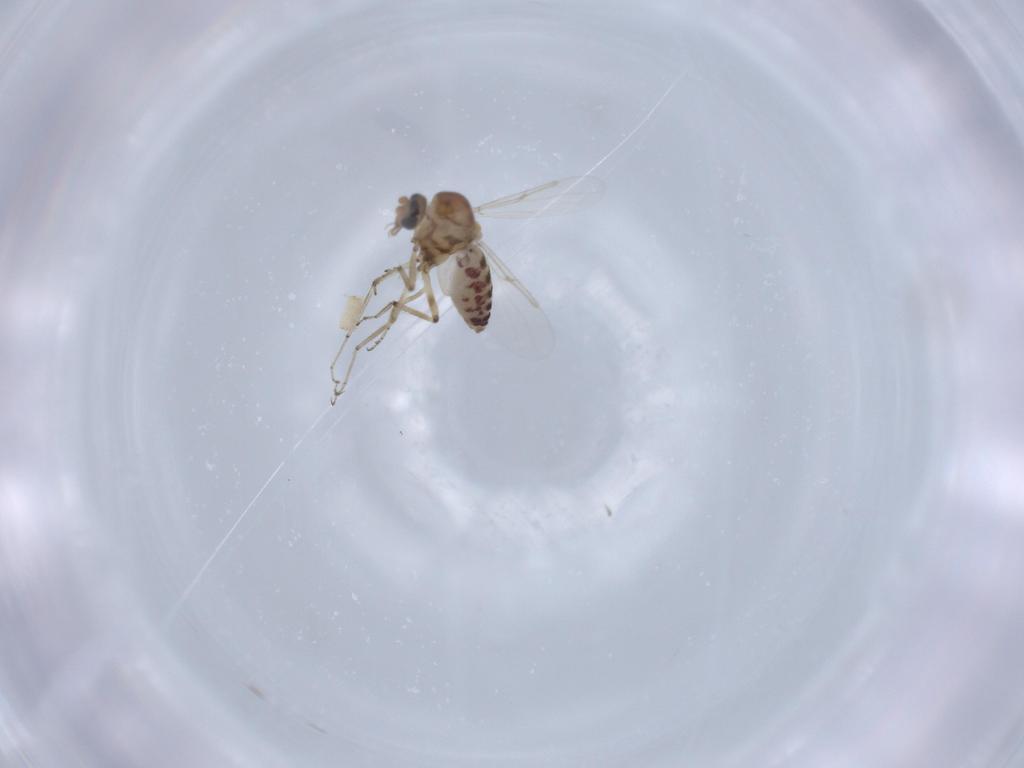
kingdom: Animalia
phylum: Arthropoda
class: Insecta
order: Diptera
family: Ceratopogonidae
